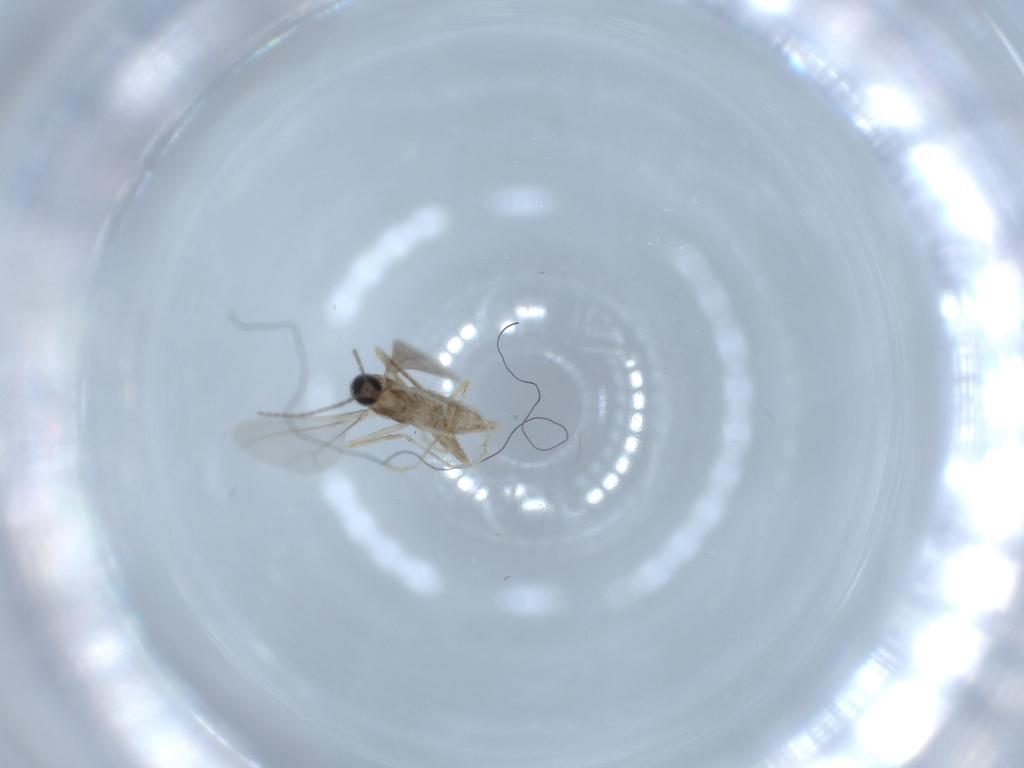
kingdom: Animalia
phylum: Arthropoda
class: Insecta
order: Diptera
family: Cecidomyiidae
